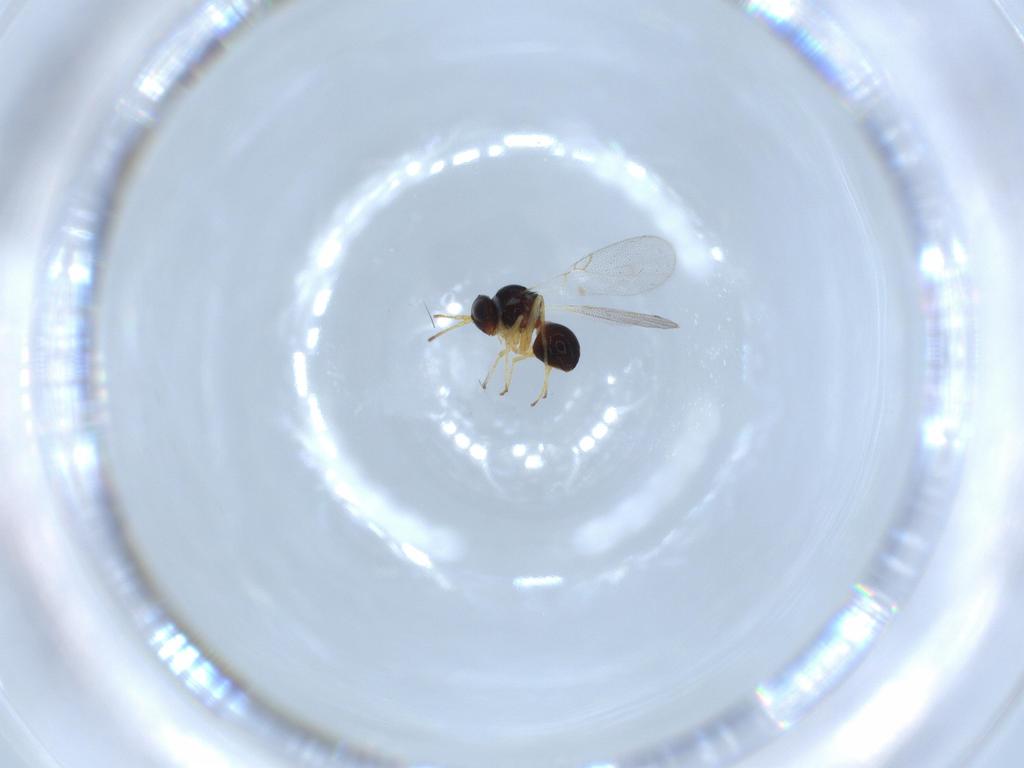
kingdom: Animalia
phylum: Arthropoda
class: Insecta
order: Hymenoptera
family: Figitidae
